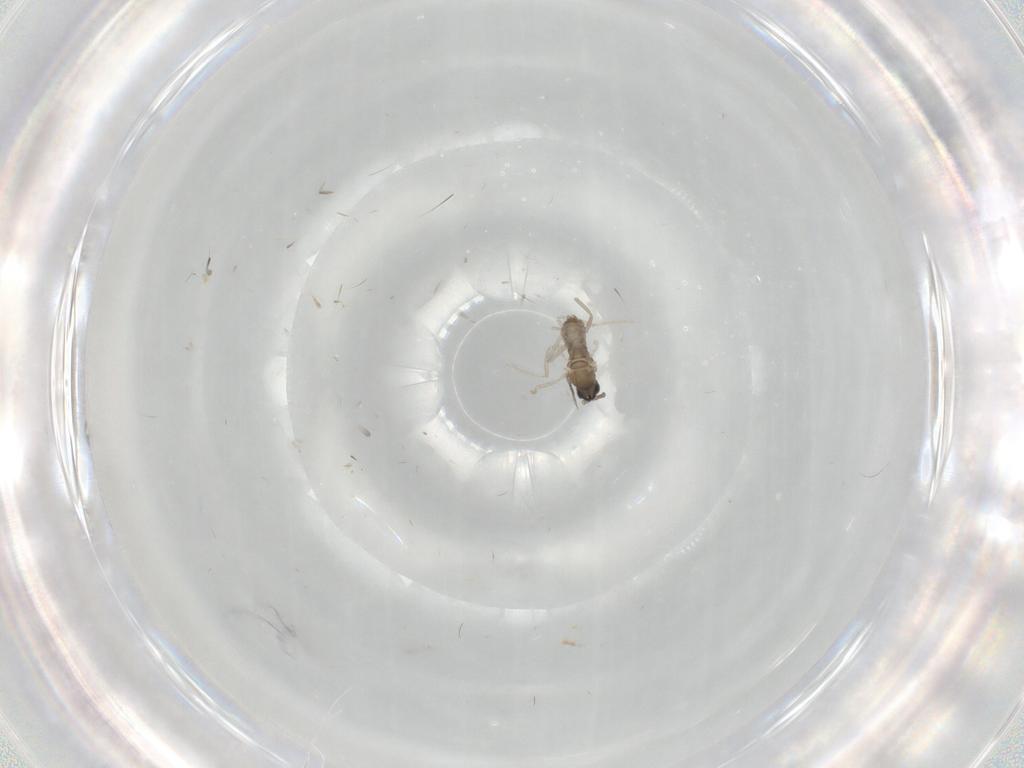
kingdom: Animalia
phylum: Arthropoda
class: Insecta
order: Diptera
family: Cecidomyiidae
